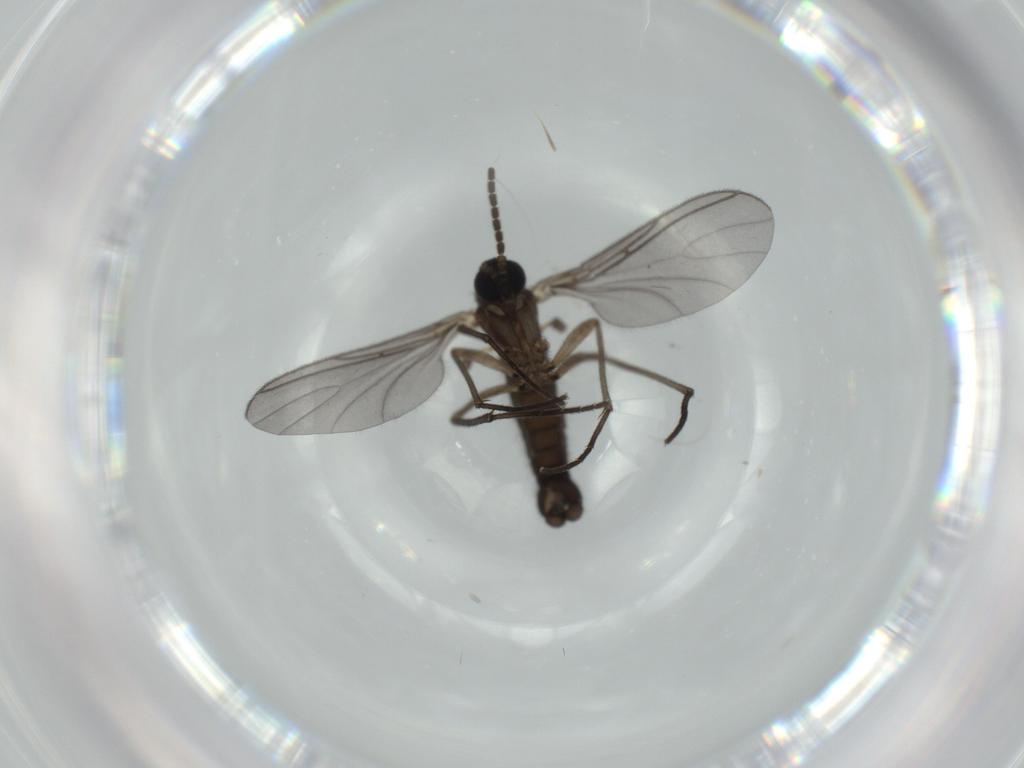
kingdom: Animalia
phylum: Arthropoda
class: Insecta
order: Diptera
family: Sciaridae
